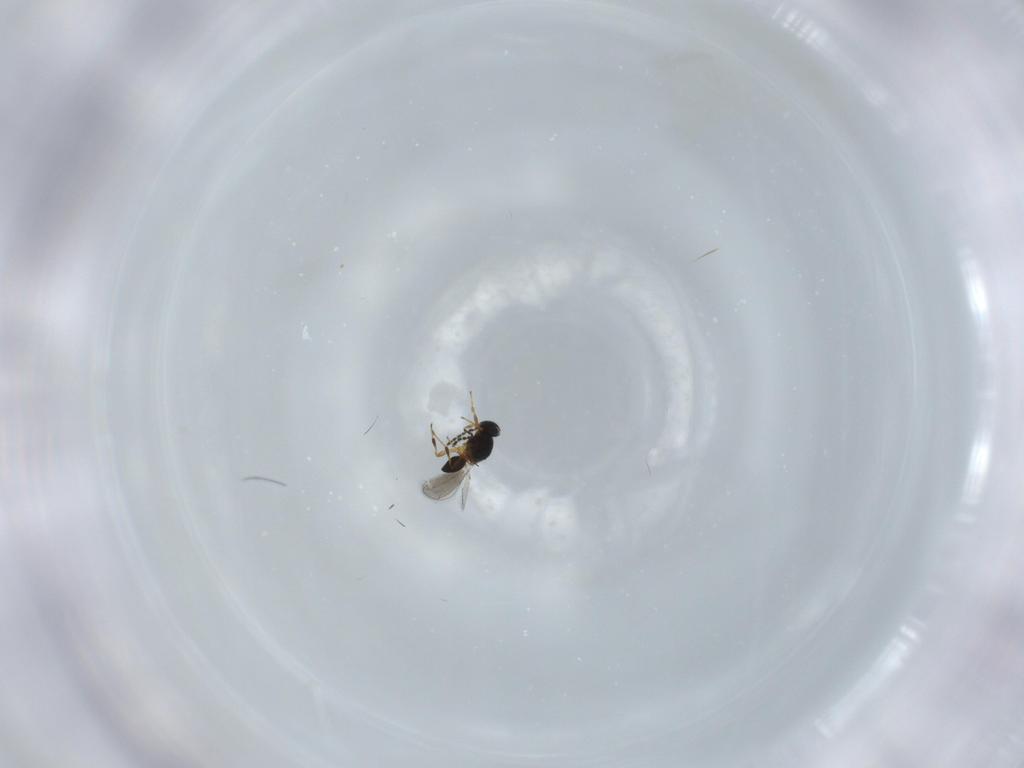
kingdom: Animalia
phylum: Arthropoda
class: Insecta
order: Hymenoptera
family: Platygastridae
